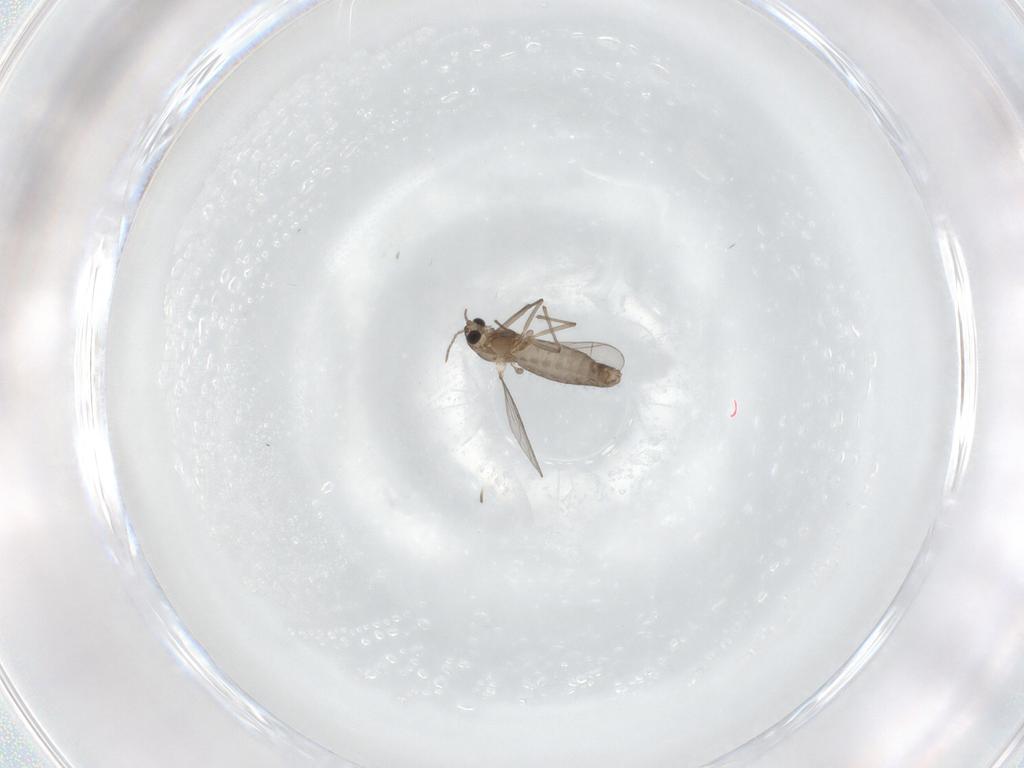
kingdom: Animalia
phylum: Arthropoda
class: Insecta
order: Diptera
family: Chironomidae
